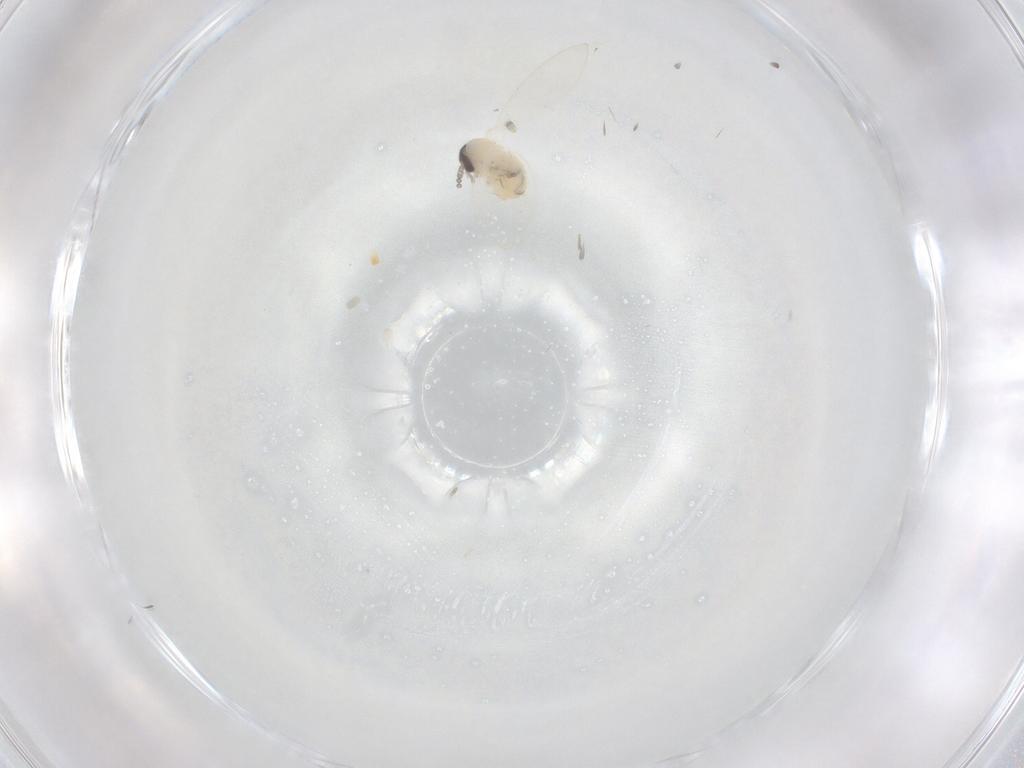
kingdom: Animalia
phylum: Arthropoda
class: Insecta
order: Diptera
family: Psychodidae
